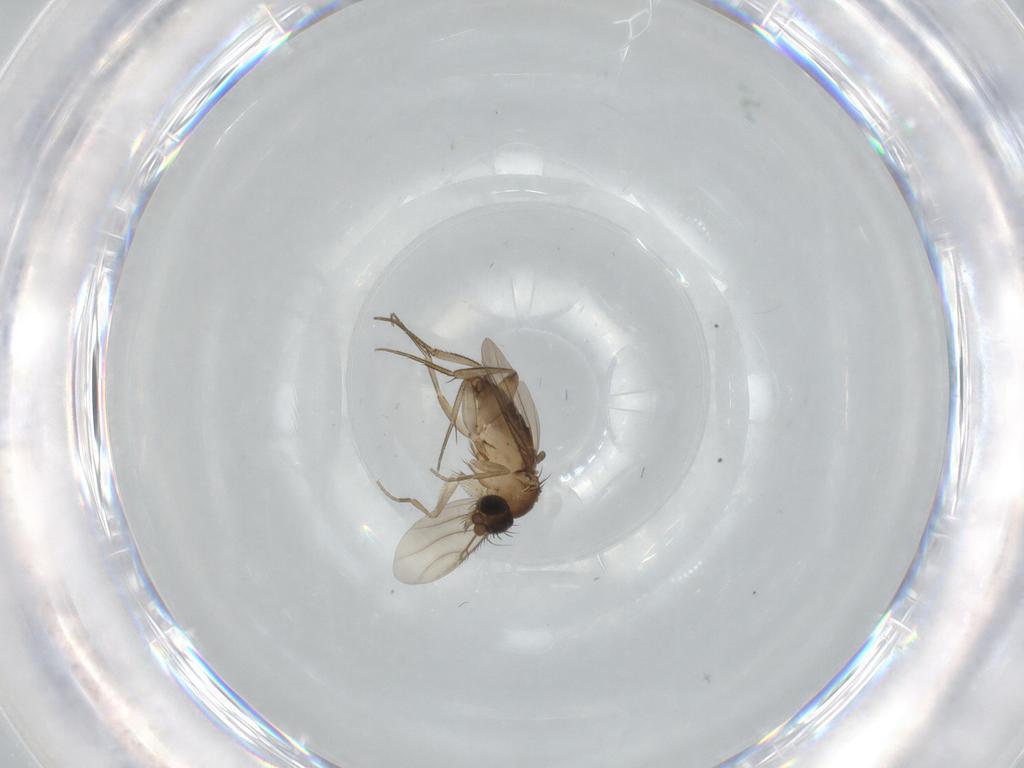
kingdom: Animalia
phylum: Arthropoda
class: Insecta
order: Diptera
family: Phoridae
